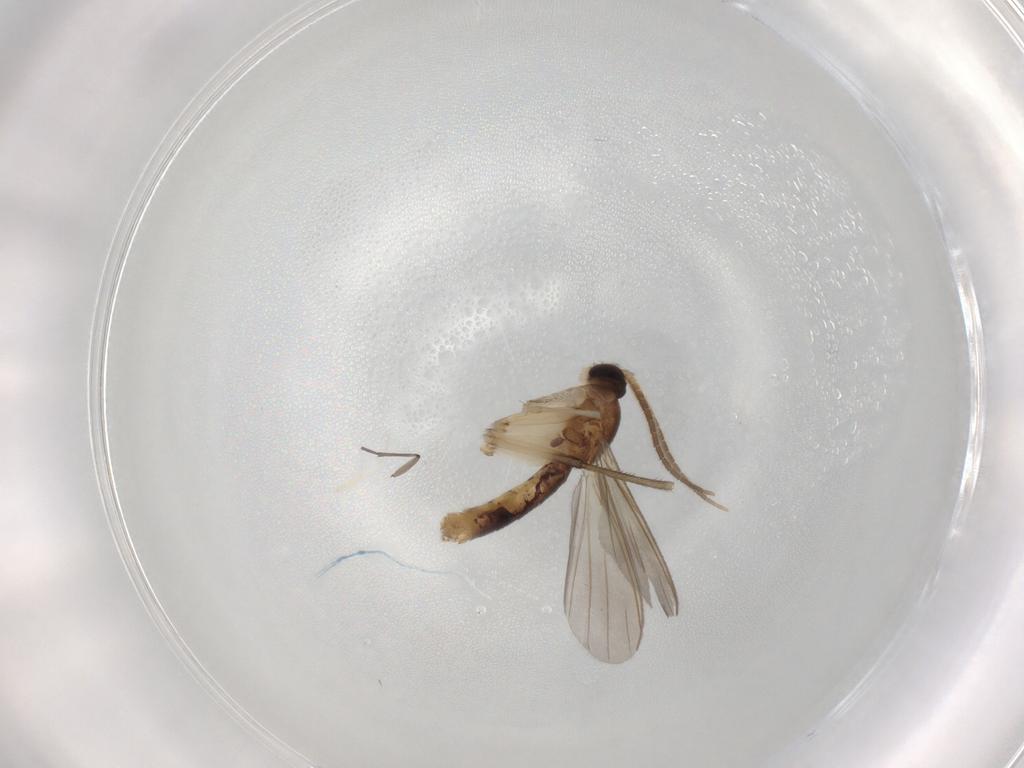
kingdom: Animalia
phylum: Arthropoda
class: Insecta
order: Diptera
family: Mycetophilidae
